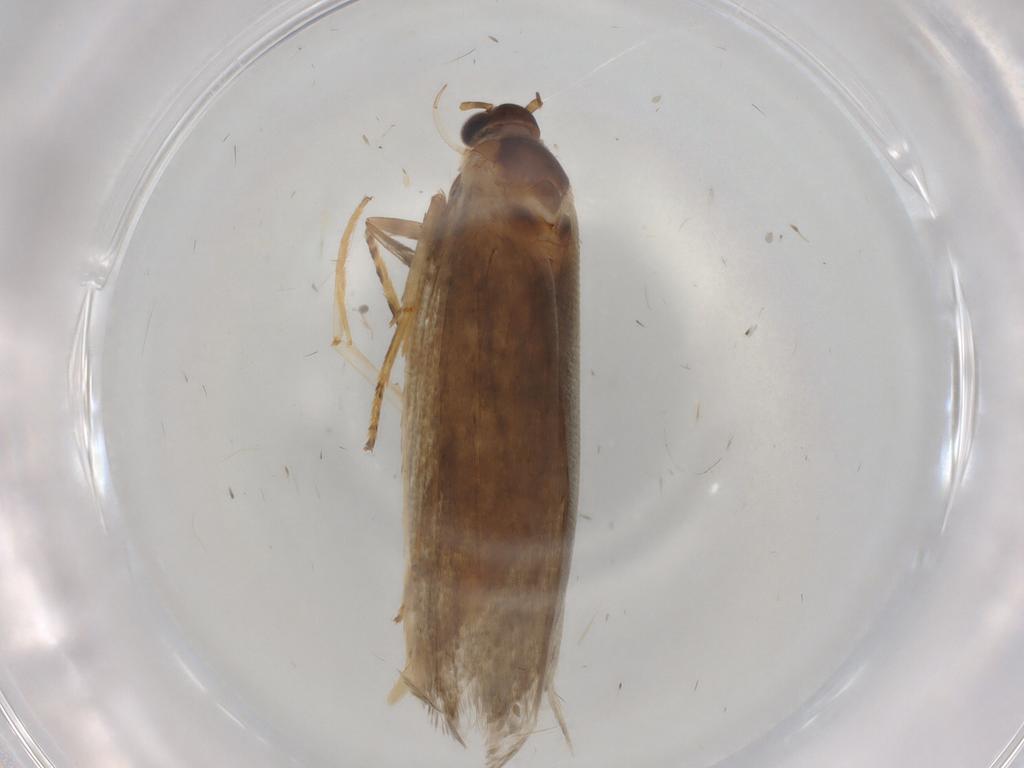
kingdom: Animalia
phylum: Arthropoda
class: Insecta
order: Lepidoptera
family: Oecophoridae
